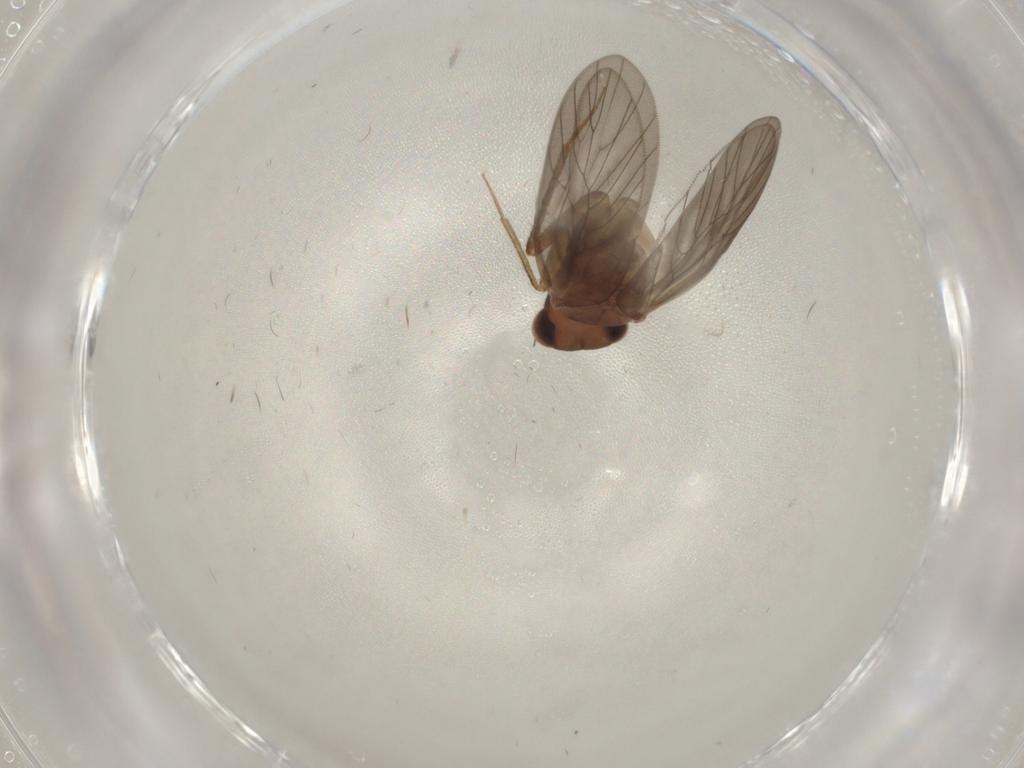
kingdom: Animalia
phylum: Arthropoda
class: Insecta
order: Psocodea
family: Lepidopsocidae
